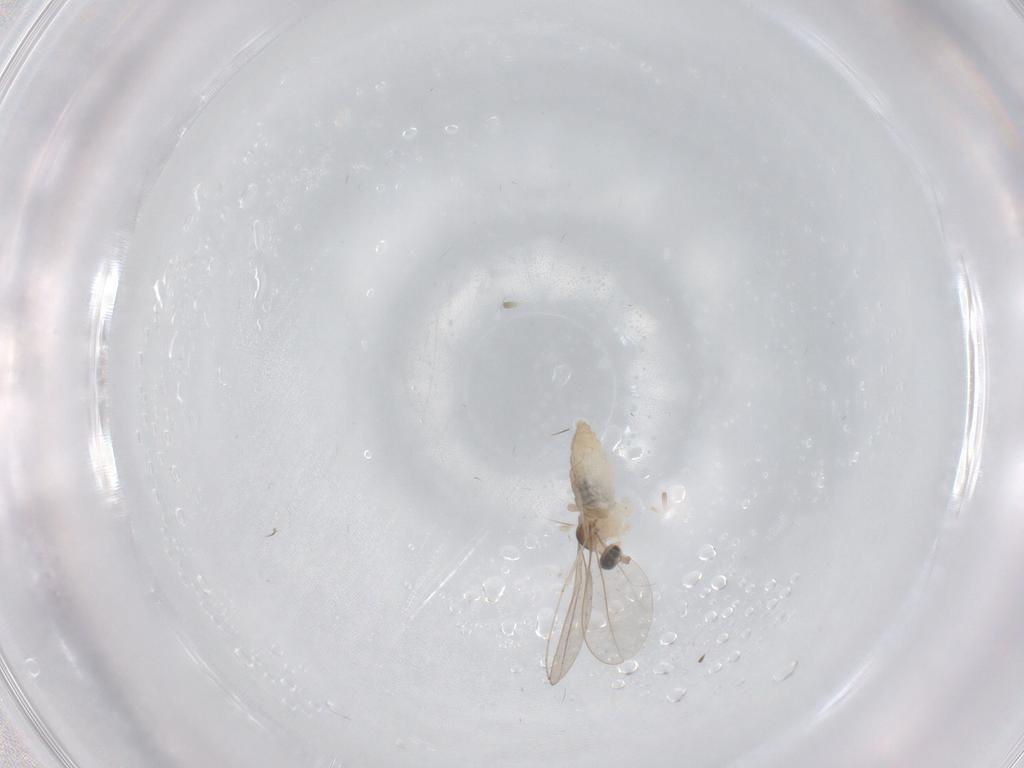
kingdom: Animalia
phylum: Arthropoda
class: Insecta
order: Diptera
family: Cecidomyiidae
